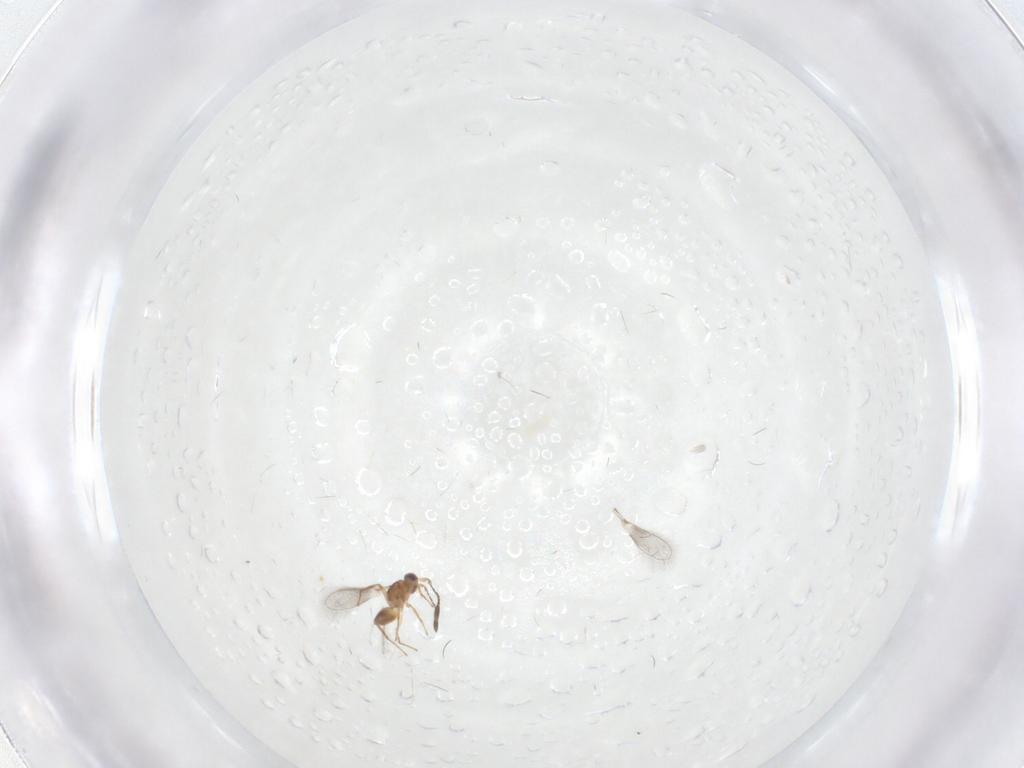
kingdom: Animalia
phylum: Arthropoda
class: Insecta
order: Hymenoptera
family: Mymaridae
